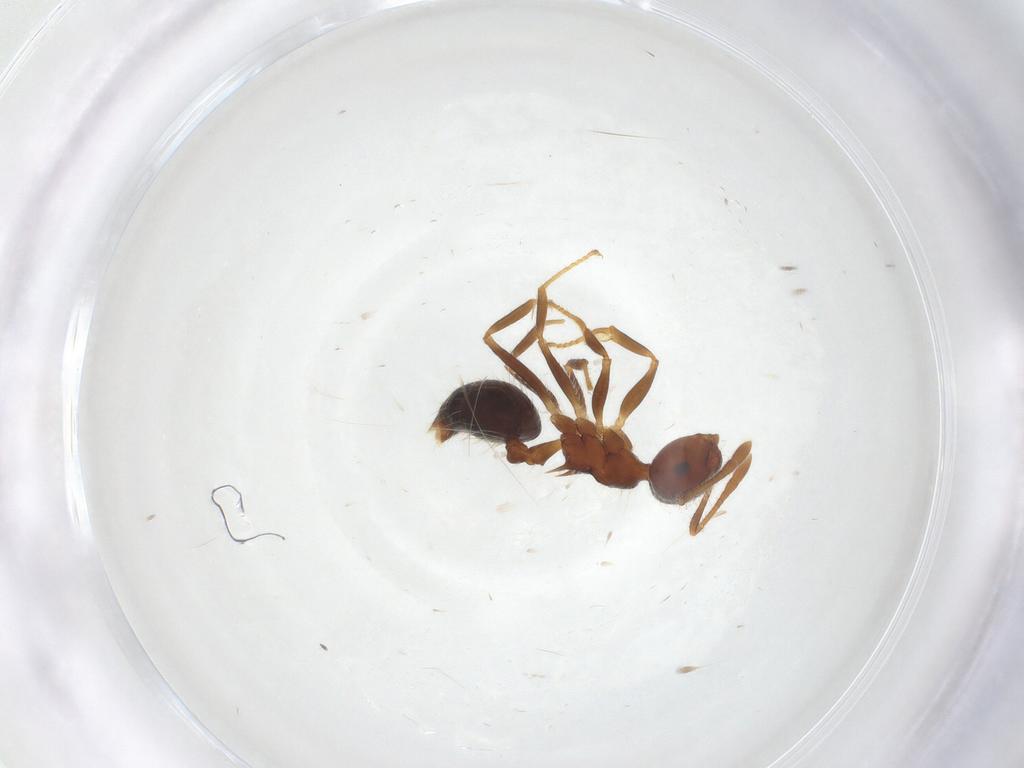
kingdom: Animalia
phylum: Arthropoda
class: Insecta
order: Hymenoptera
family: Formicidae
